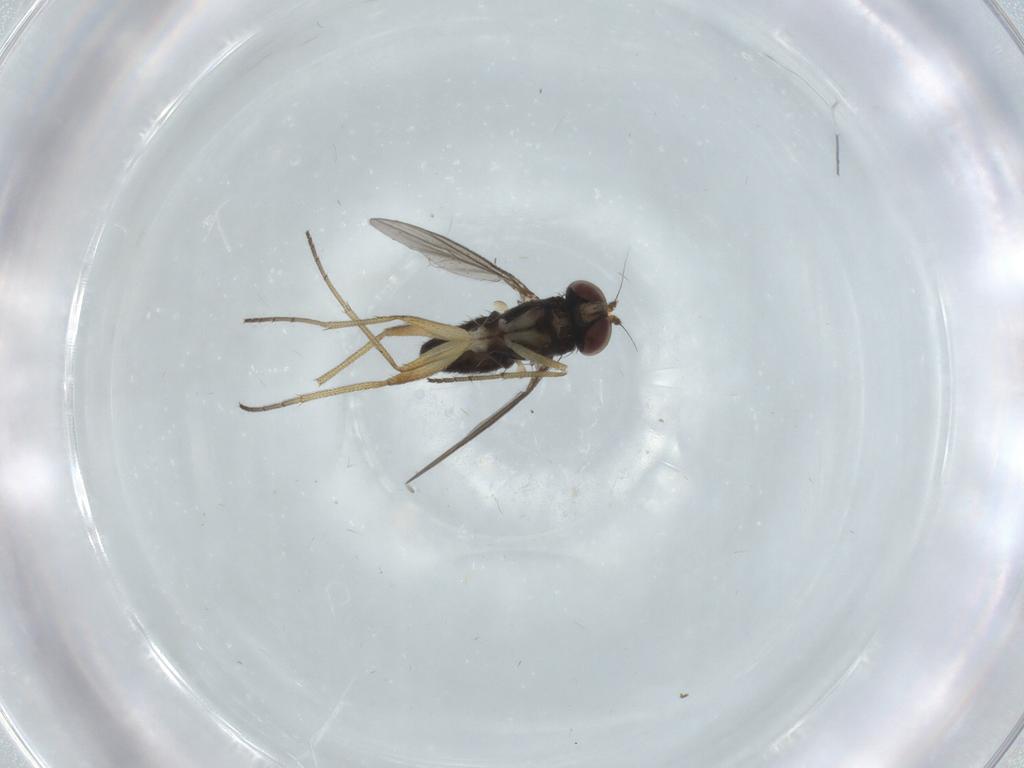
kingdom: Animalia
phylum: Arthropoda
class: Insecta
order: Diptera
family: Dolichopodidae
